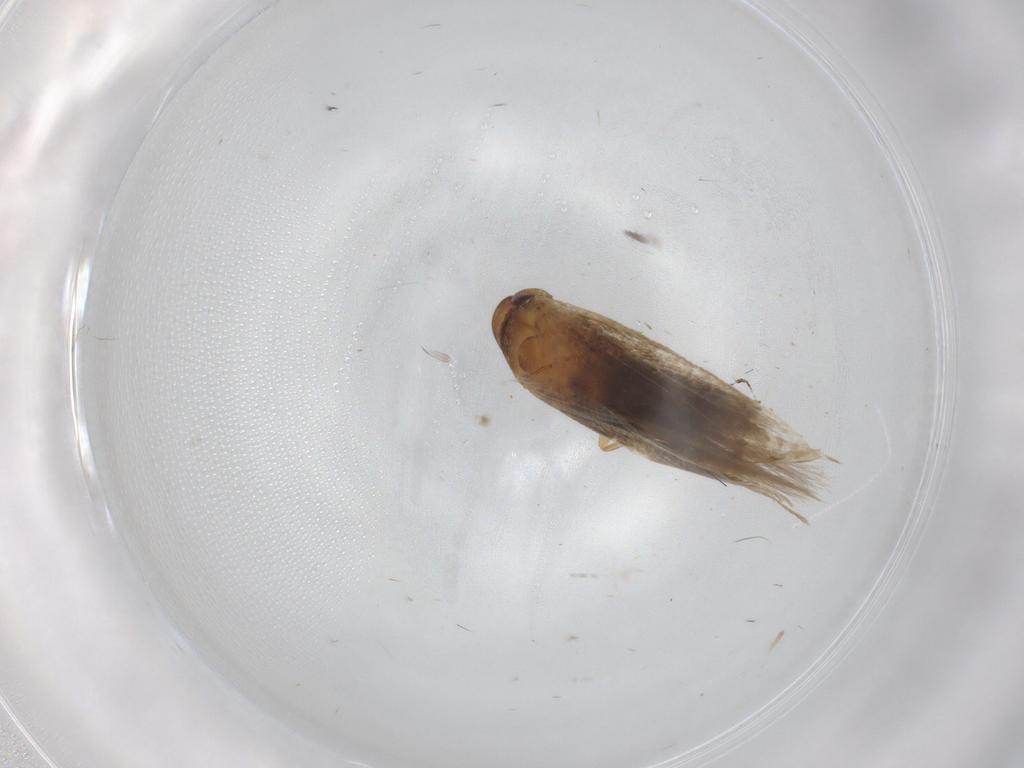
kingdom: Animalia
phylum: Arthropoda
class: Insecta
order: Lepidoptera
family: Cosmopterigidae
